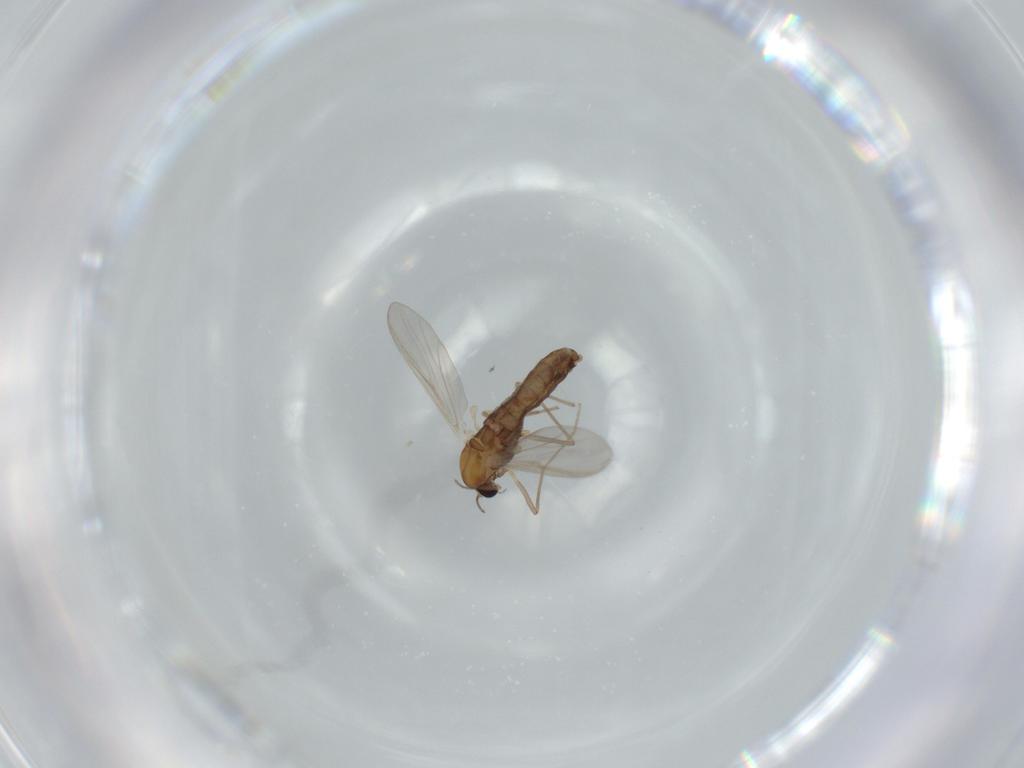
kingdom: Animalia
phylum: Arthropoda
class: Insecta
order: Diptera
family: Chironomidae
